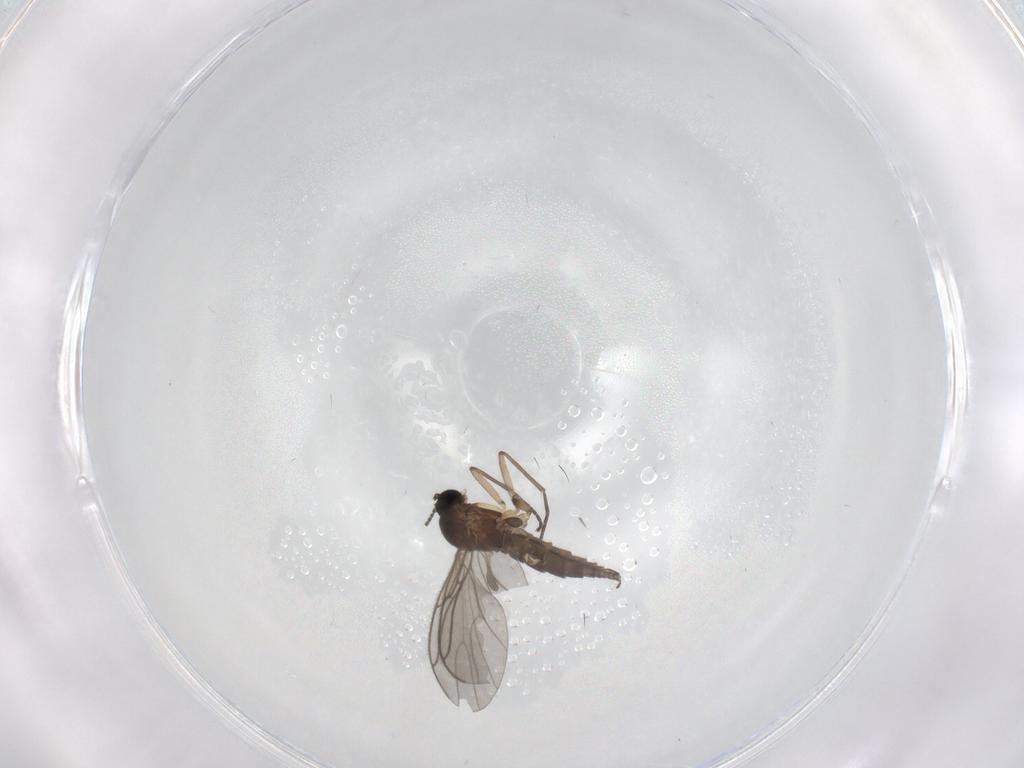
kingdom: Animalia
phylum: Arthropoda
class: Insecta
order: Diptera
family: Sciaridae
